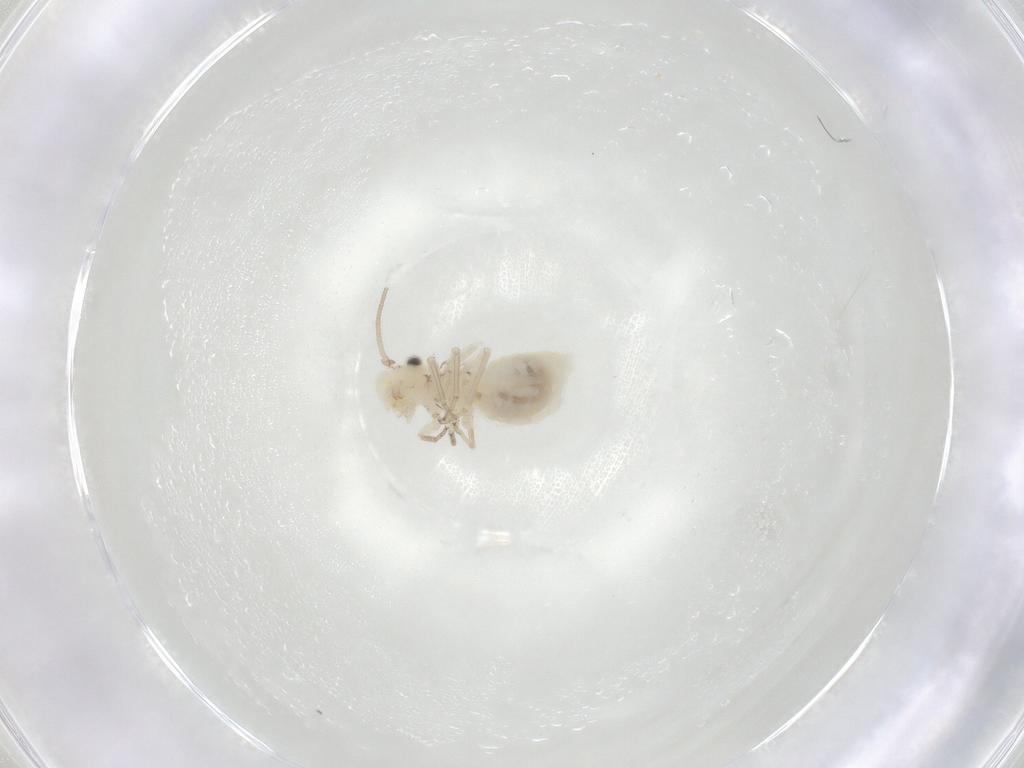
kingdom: Animalia
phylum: Arthropoda
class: Insecta
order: Psocodea
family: Caeciliusidae
